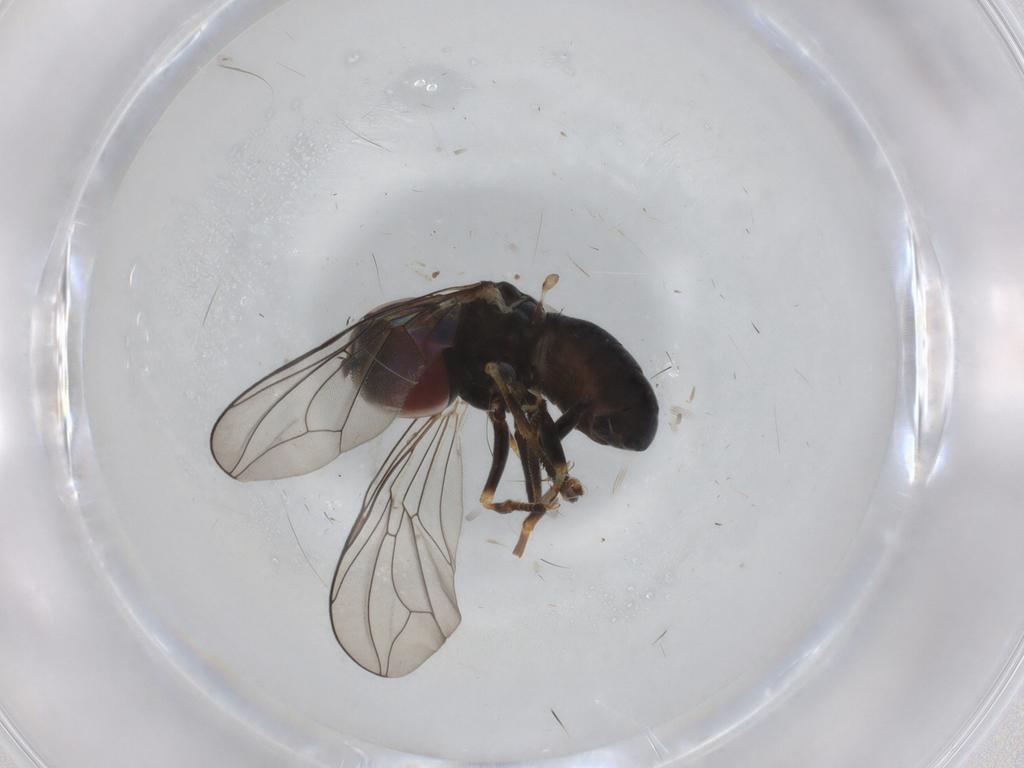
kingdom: Animalia
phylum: Arthropoda
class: Insecta
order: Diptera
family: Pipunculidae
